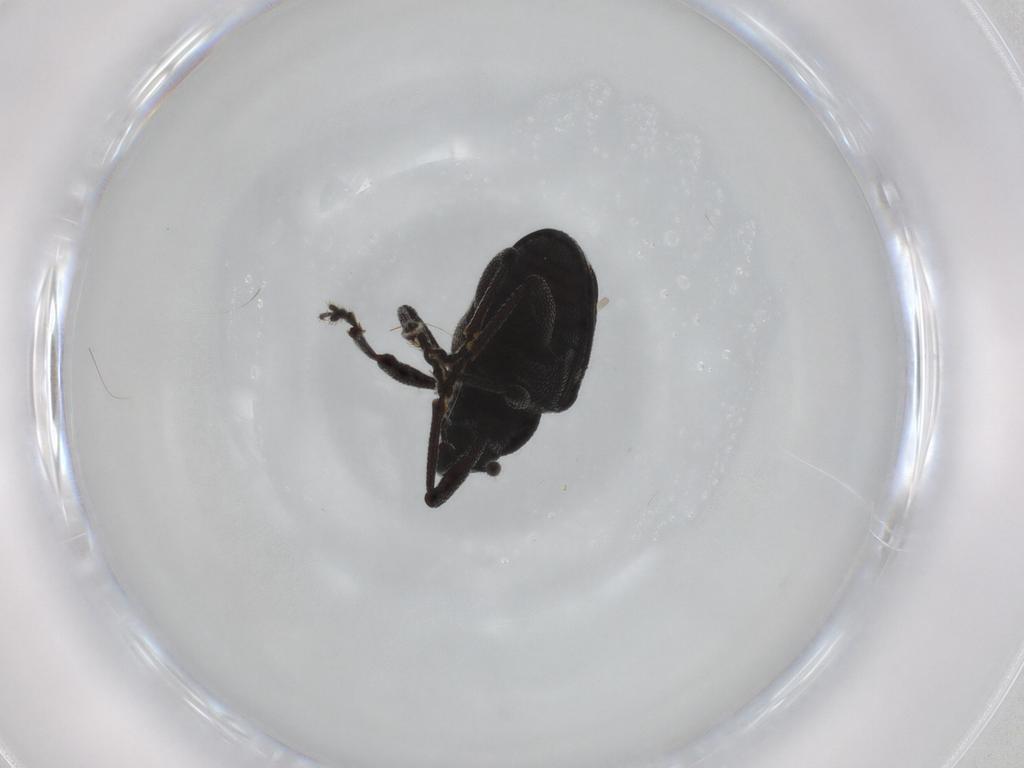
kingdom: Animalia
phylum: Arthropoda
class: Insecta
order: Coleoptera
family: Curculionidae
